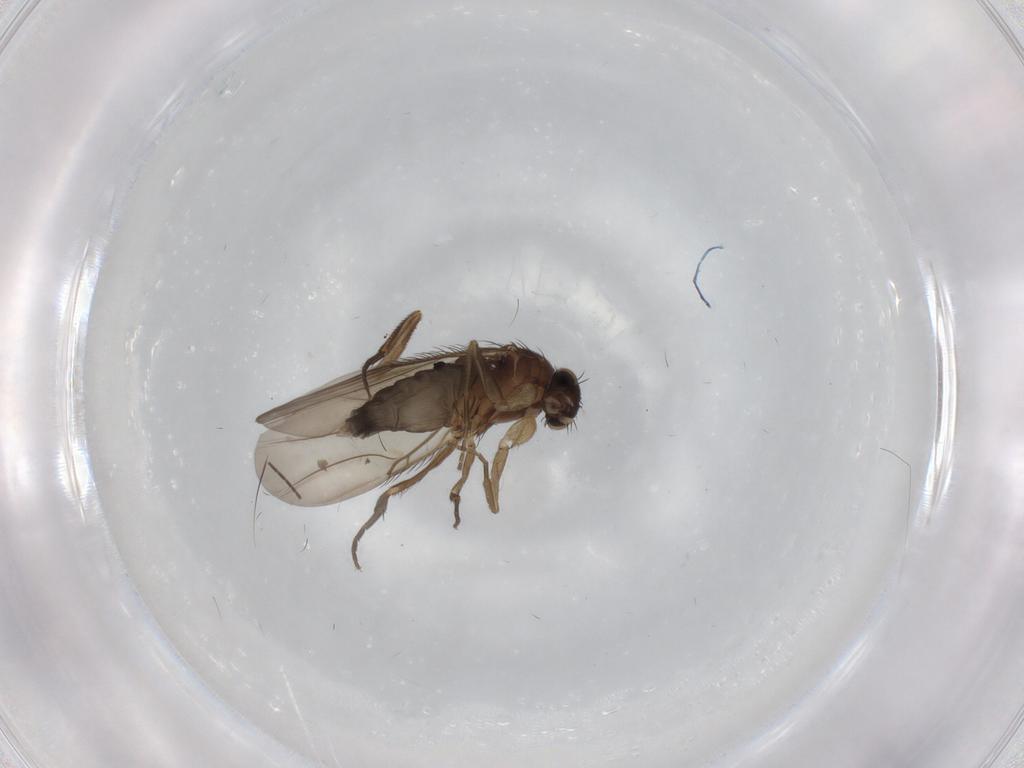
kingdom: Animalia
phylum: Arthropoda
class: Insecta
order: Diptera
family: Phoridae
